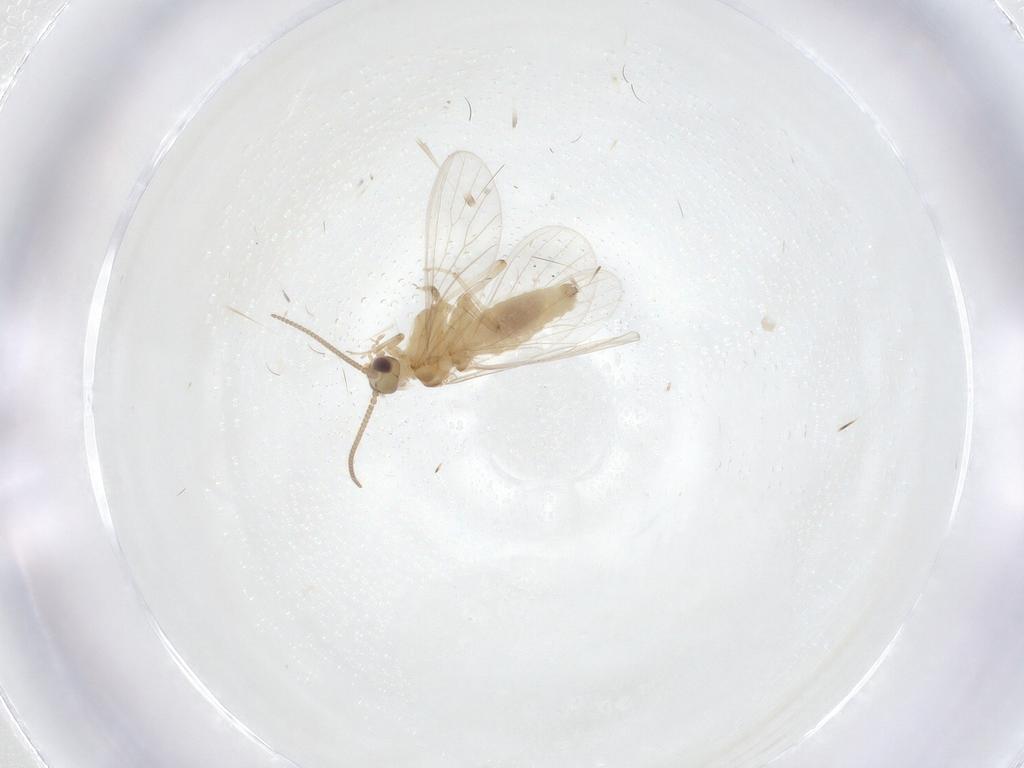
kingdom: Animalia
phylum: Arthropoda
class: Insecta
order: Neuroptera
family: Coniopterygidae
